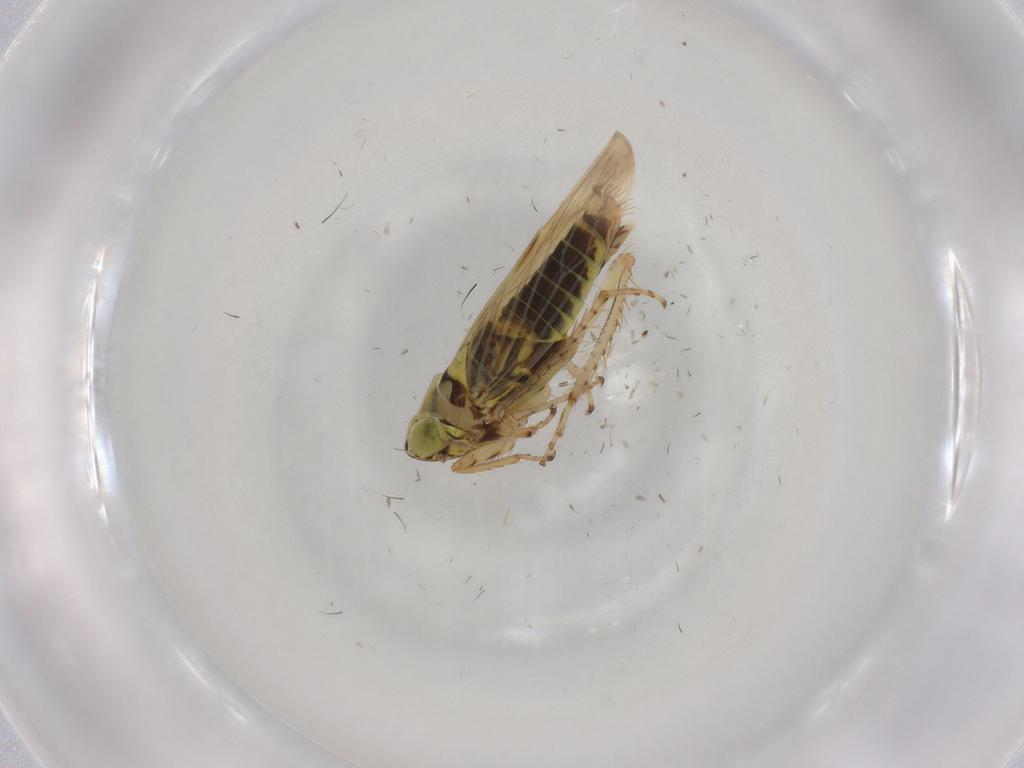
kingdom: Animalia
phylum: Arthropoda
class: Insecta
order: Hemiptera
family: Cicadellidae
